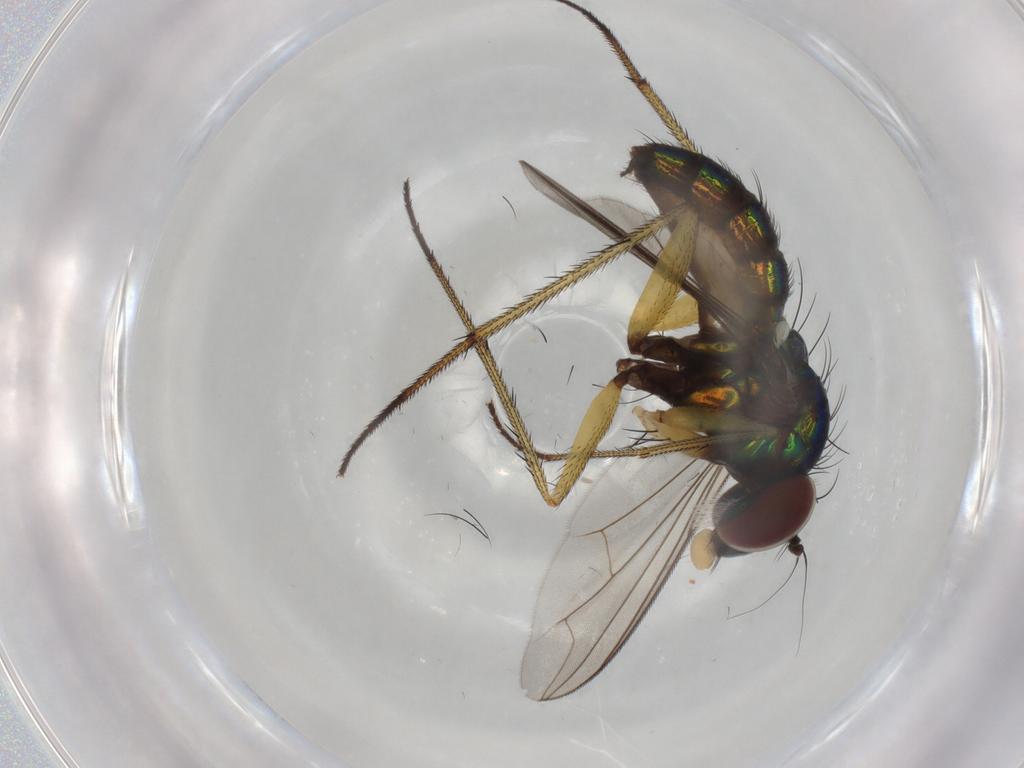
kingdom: Animalia
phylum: Arthropoda
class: Insecta
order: Diptera
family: Dolichopodidae
